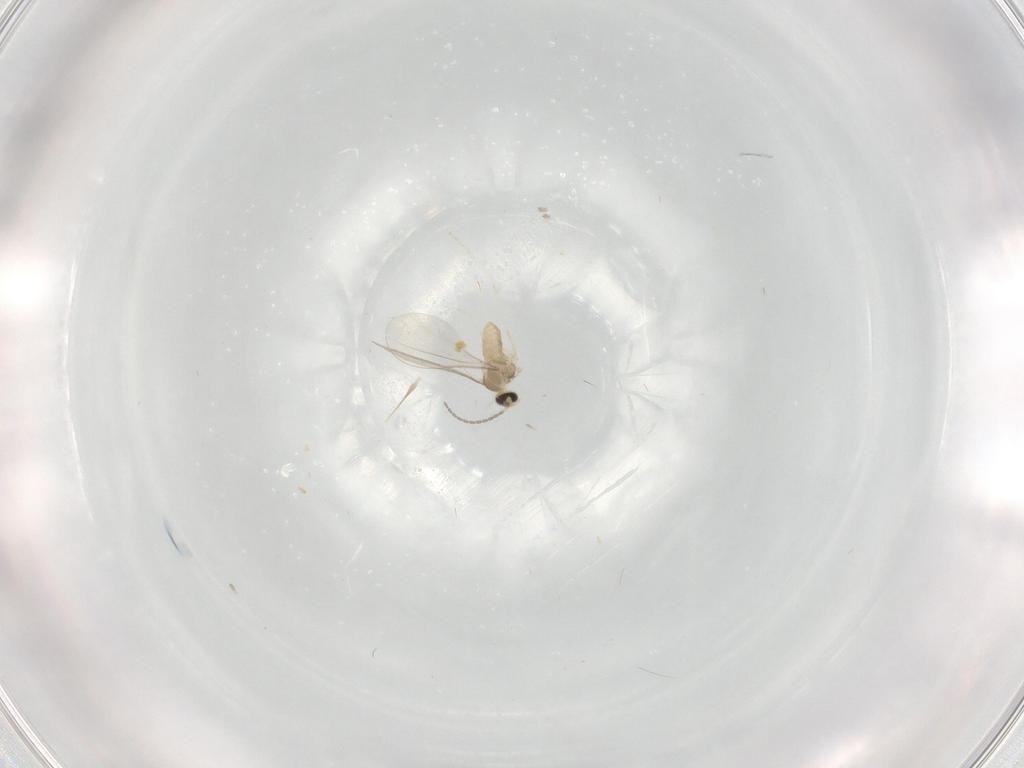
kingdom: Animalia
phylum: Arthropoda
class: Insecta
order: Diptera
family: Cecidomyiidae
